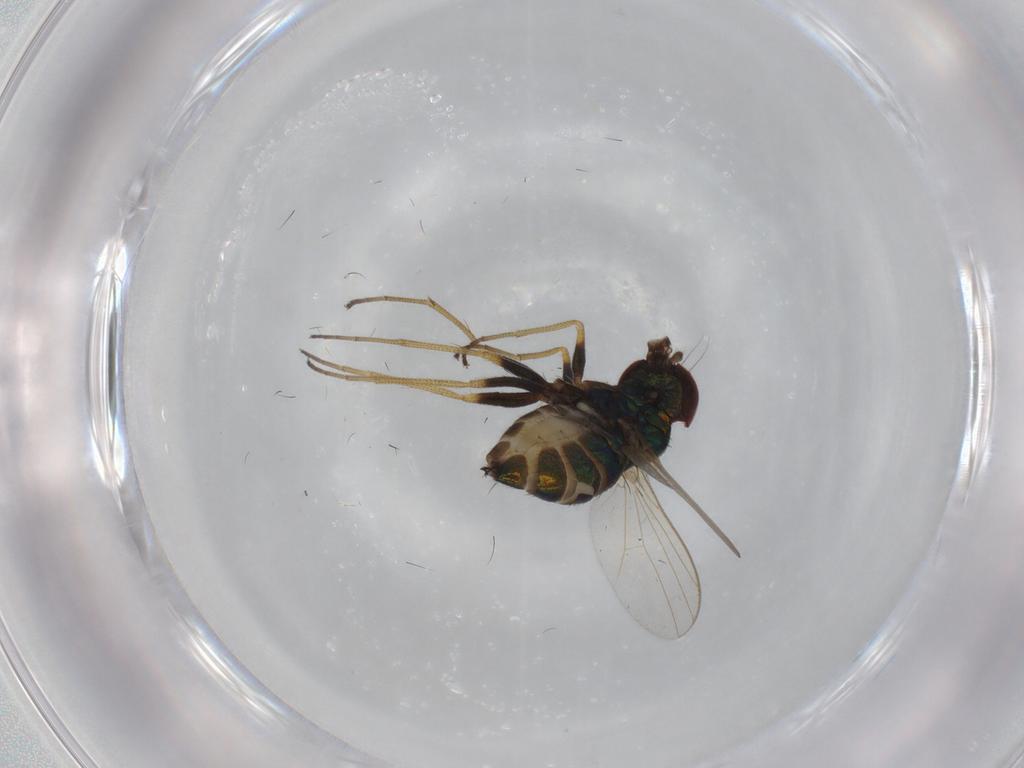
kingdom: Animalia
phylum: Arthropoda
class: Insecta
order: Diptera
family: Dolichopodidae
